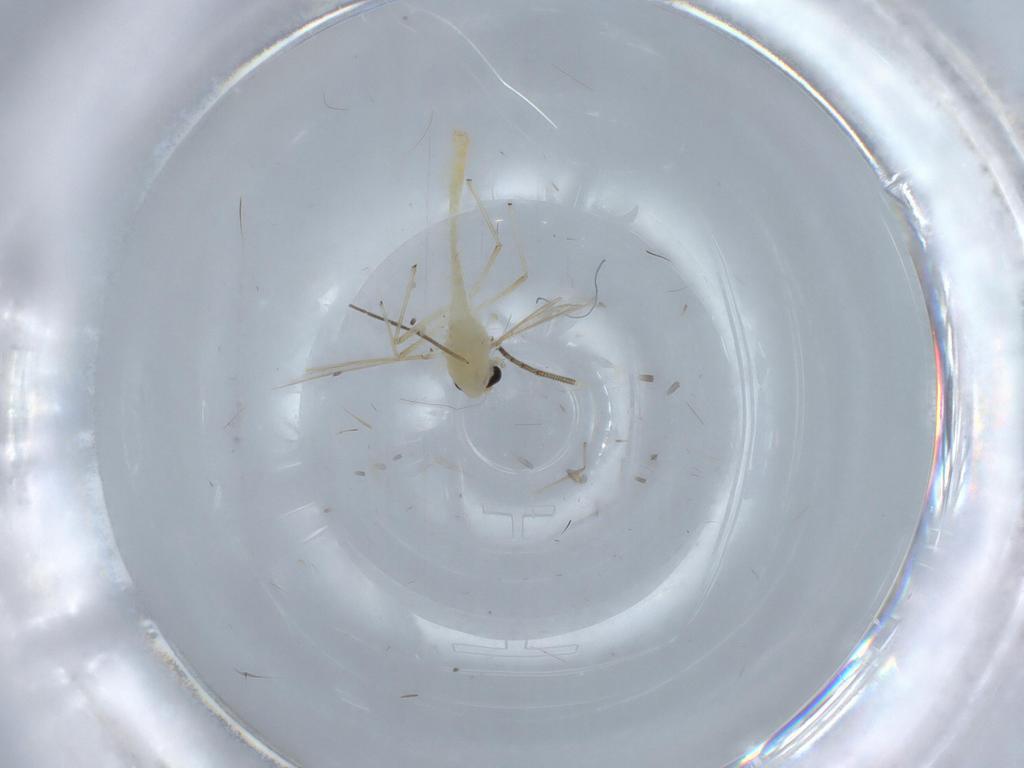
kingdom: Animalia
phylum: Arthropoda
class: Insecta
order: Diptera
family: Chironomidae
